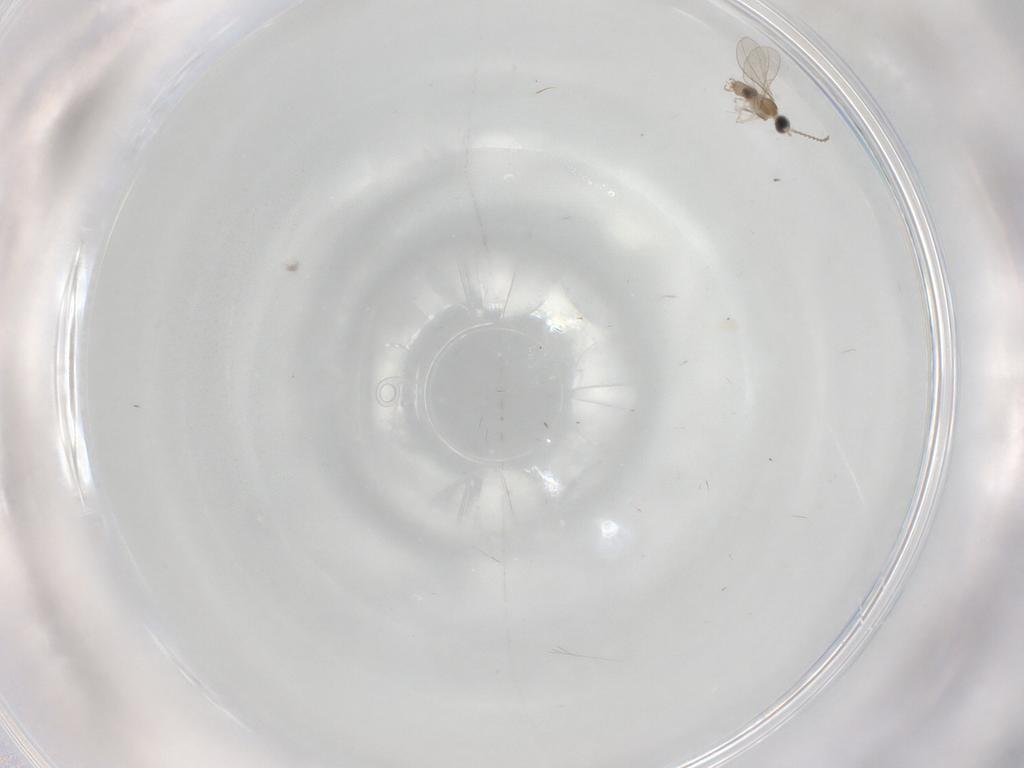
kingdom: Animalia
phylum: Arthropoda
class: Insecta
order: Diptera
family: Cecidomyiidae
